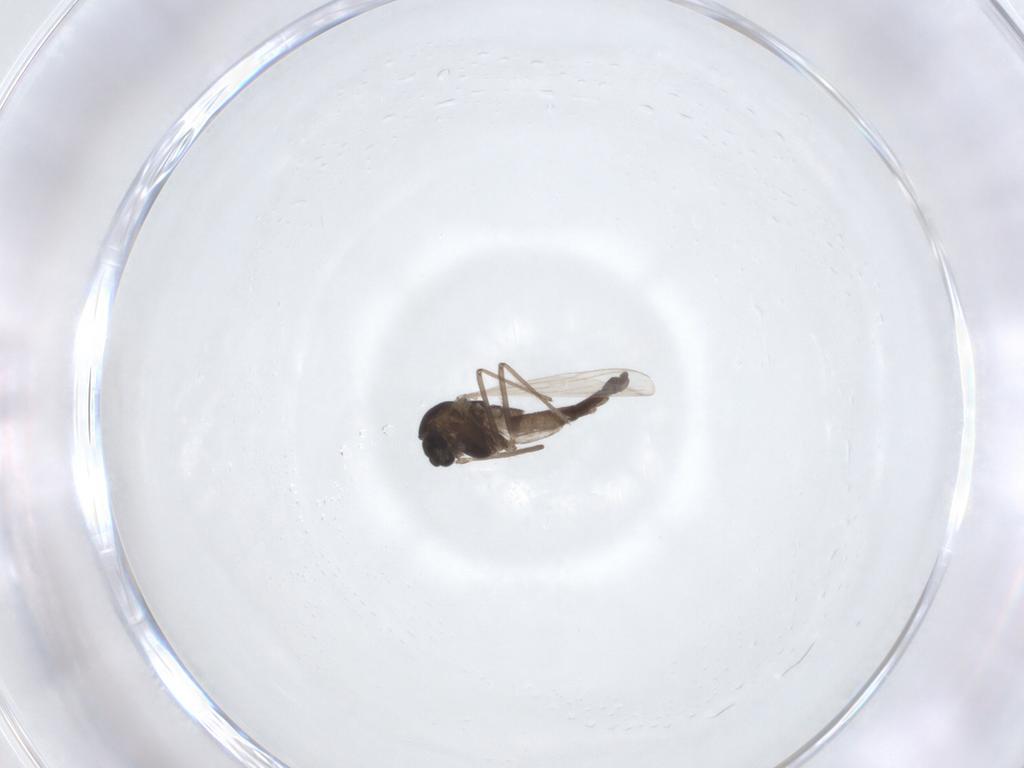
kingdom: Animalia
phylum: Arthropoda
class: Insecta
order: Diptera
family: Chironomidae
